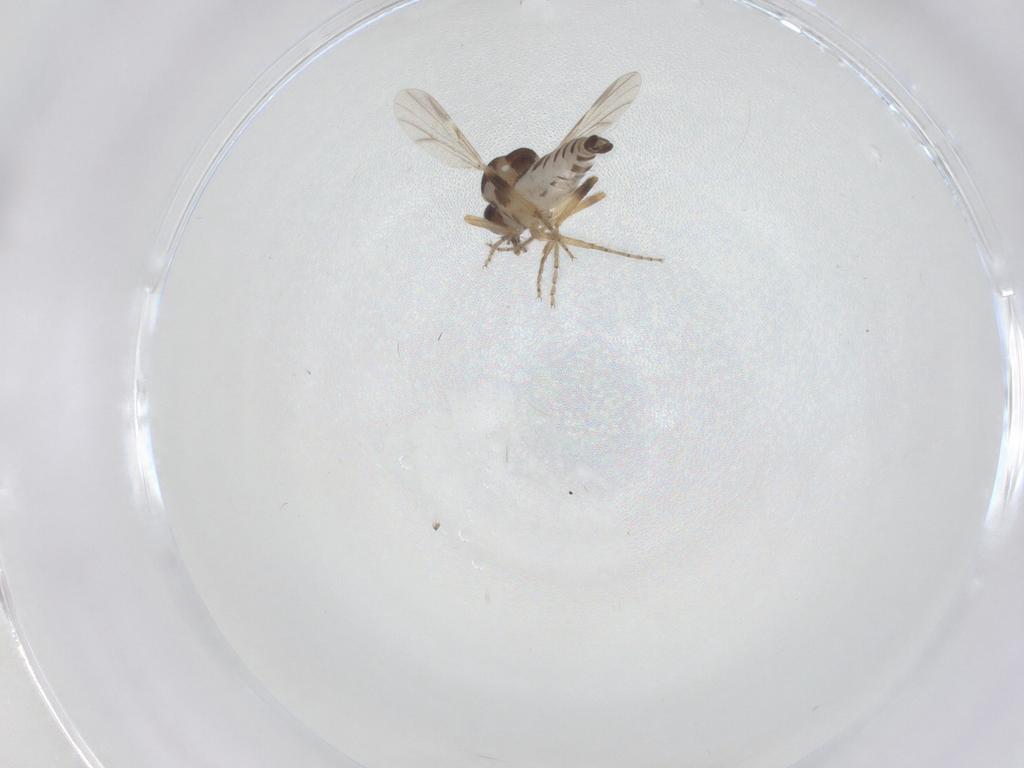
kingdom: Animalia
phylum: Arthropoda
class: Insecta
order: Diptera
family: Ceratopogonidae
